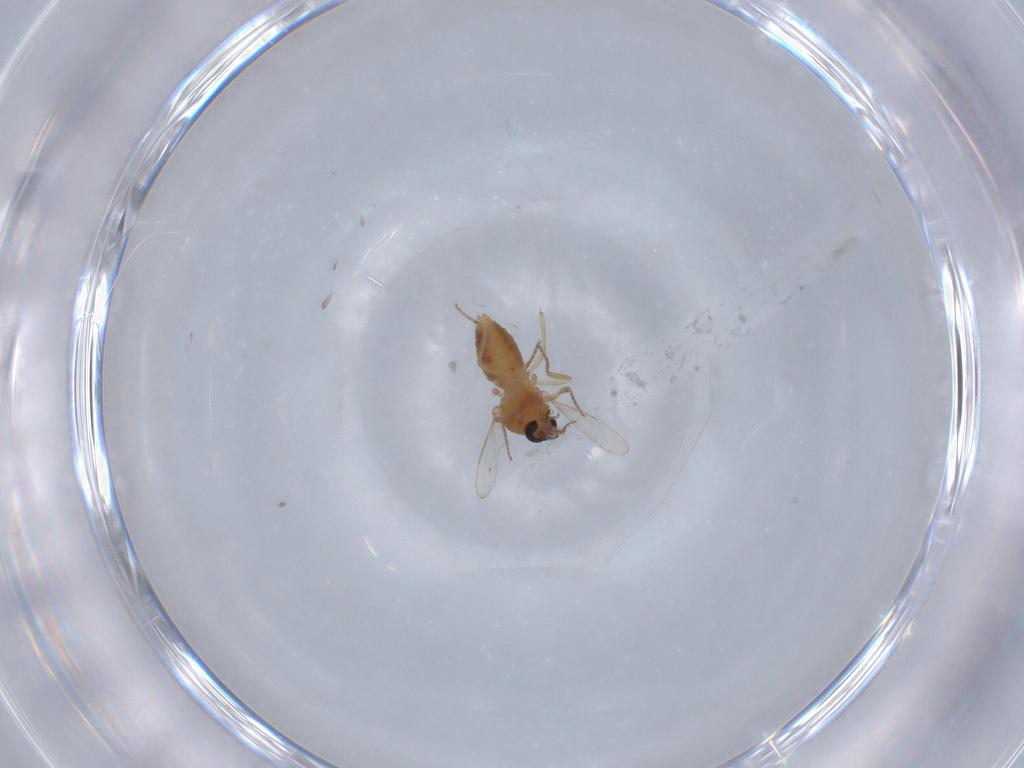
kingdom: Animalia
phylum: Arthropoda
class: Insecta
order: Diptera
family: Ceratopogonidae
